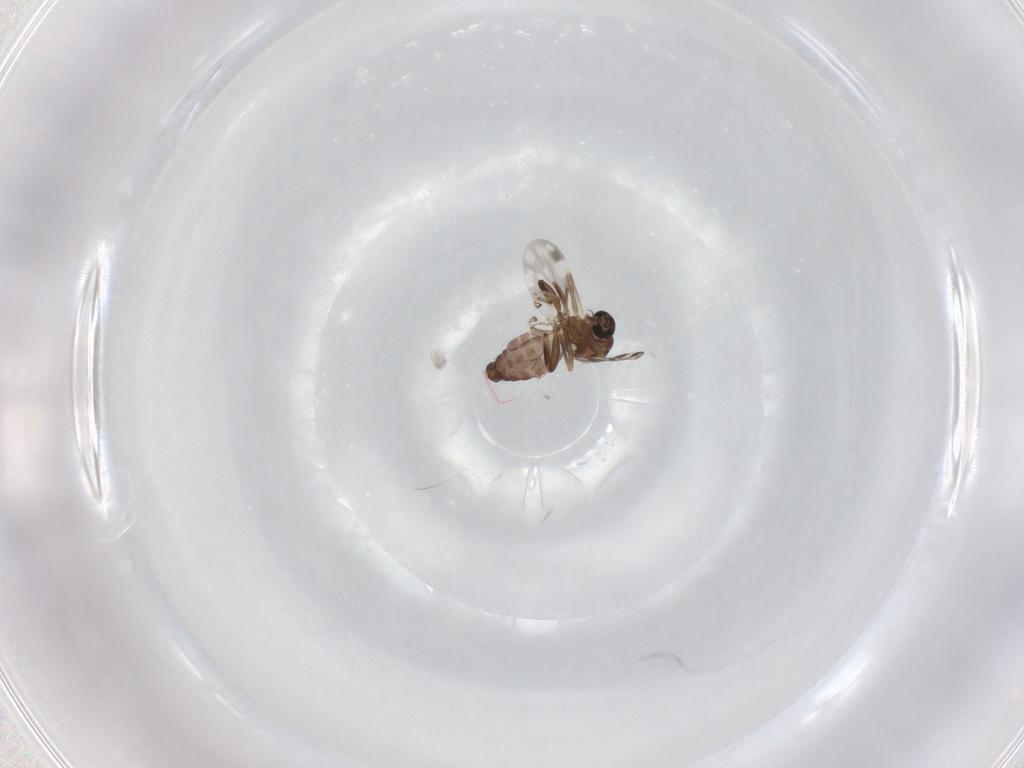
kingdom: Animalia
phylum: Arthropoda
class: Insecta
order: Diptera
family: Ceratopogonidae
